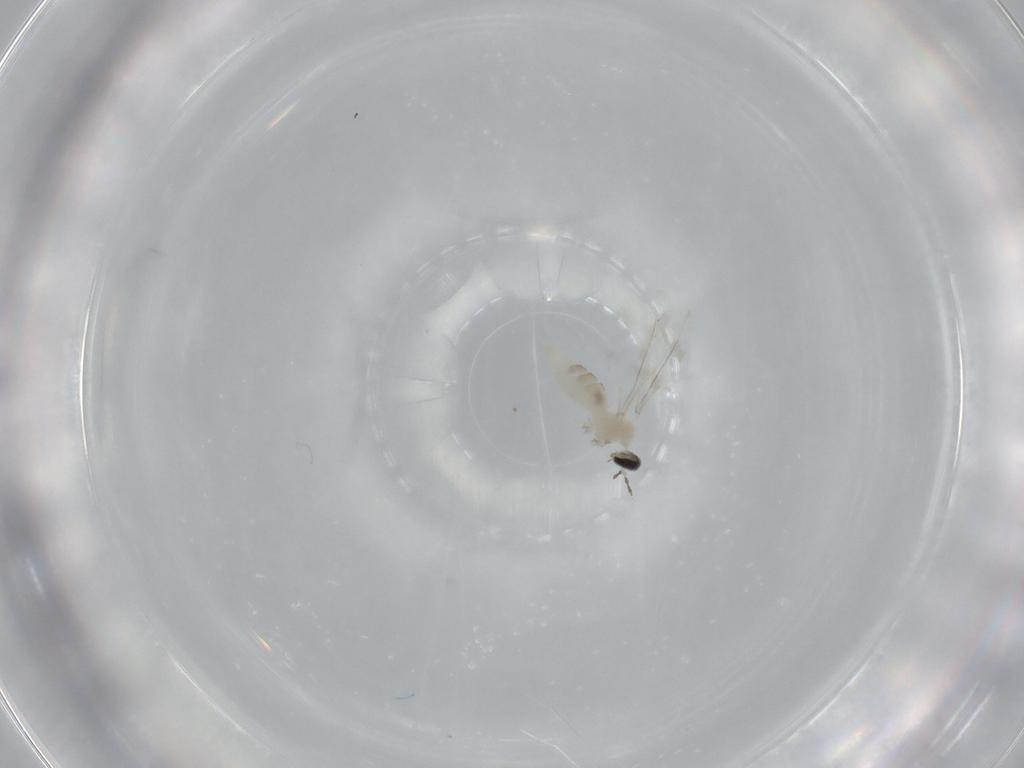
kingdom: Animalia
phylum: Arthropoda
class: Insecta
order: Diptera
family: Cecidomyiidae
